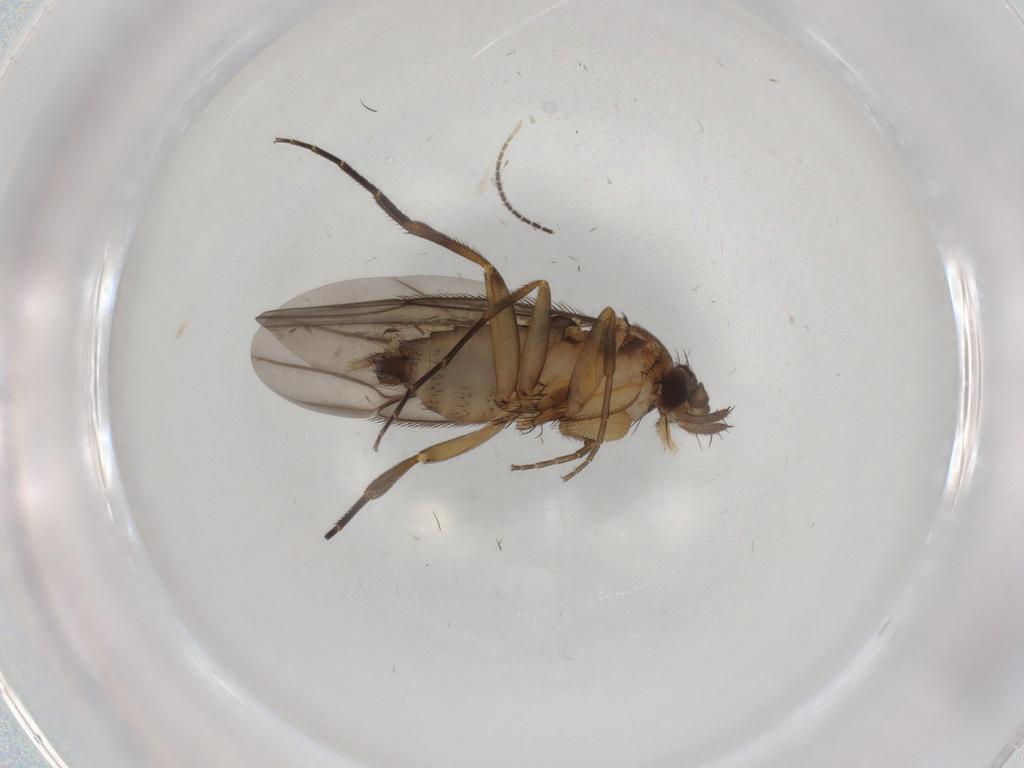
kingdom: Animalia
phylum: Arthropoda
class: Insecta
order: Diptera
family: Phoridae
